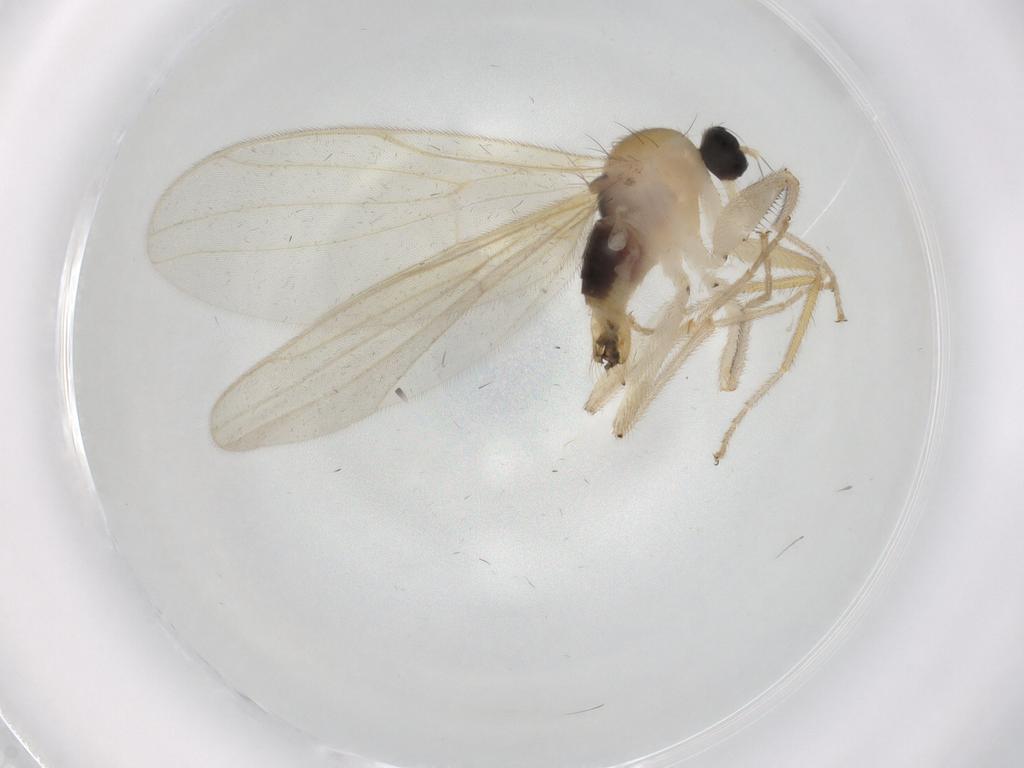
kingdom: Animalia
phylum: Arthropoda
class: Insecta
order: Diptera
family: Hybotidae
